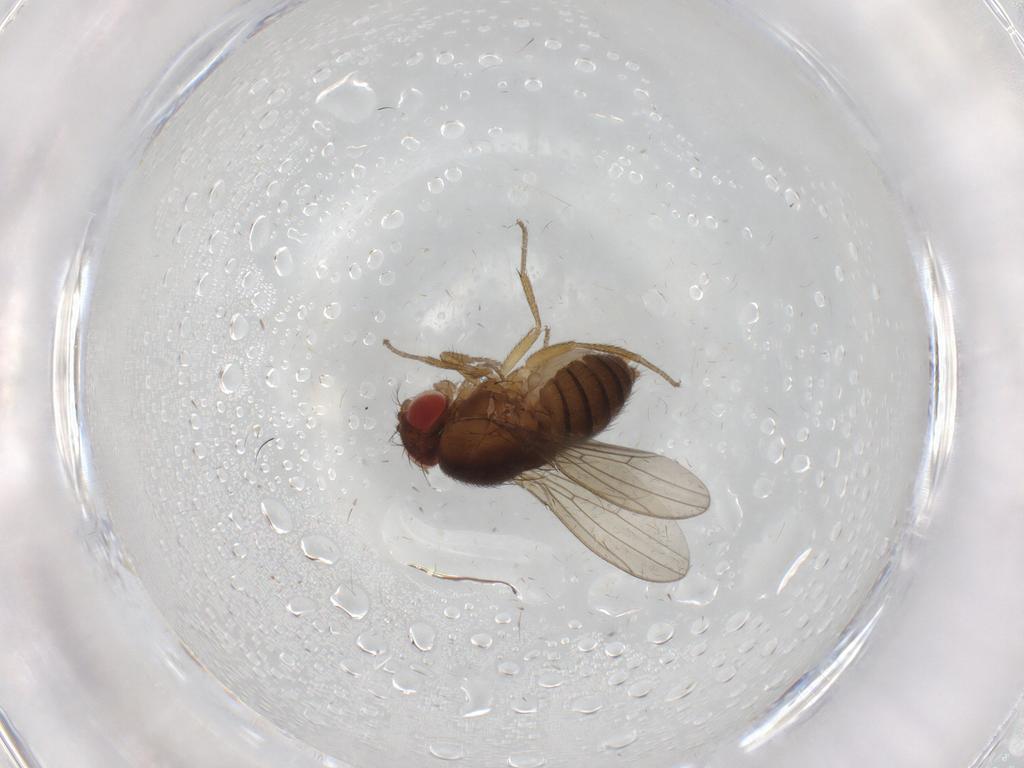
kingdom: Animalia
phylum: Arthropoda
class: Insecta
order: Diptera
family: Drosophilidae
